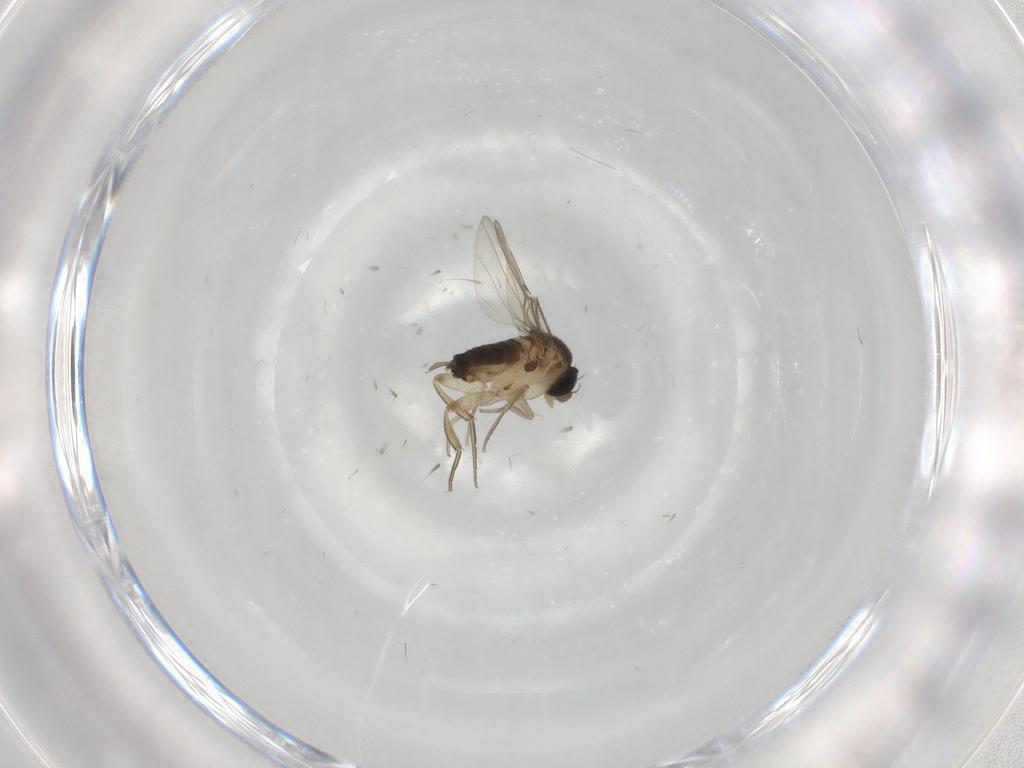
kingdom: Animalia
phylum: Arthropoda
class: Insecta
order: Diptera
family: Phoridae
